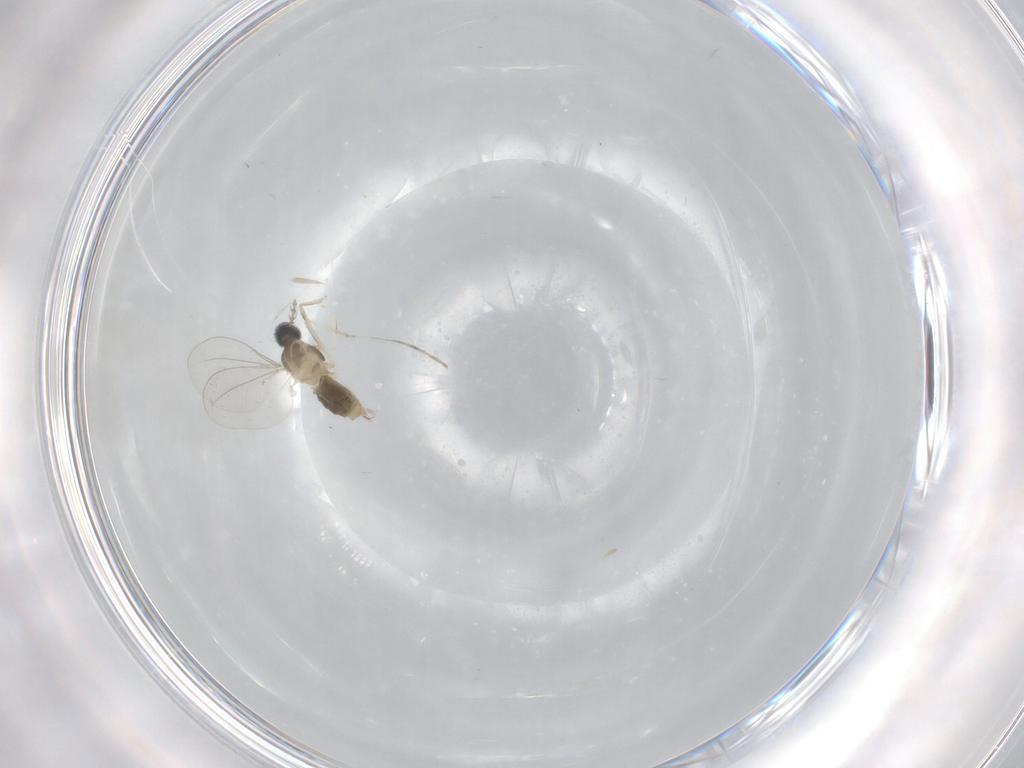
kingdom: Animalia
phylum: Arthropoda
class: Insecta
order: Diptera
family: Cecidomyiidae
